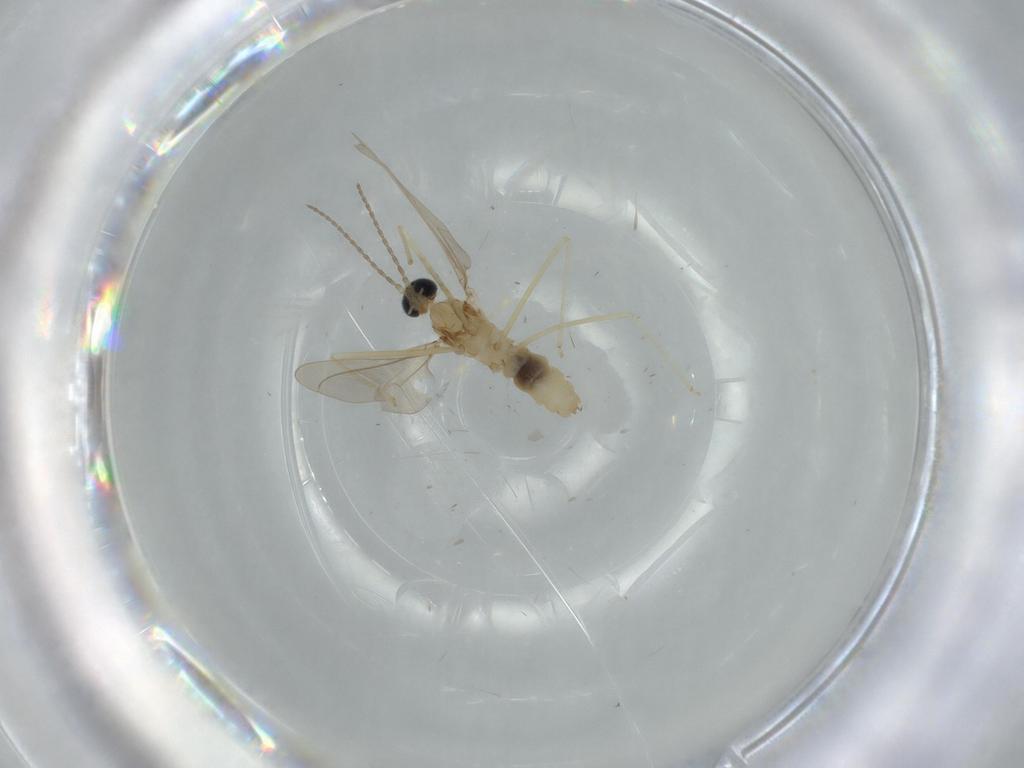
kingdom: Animalia
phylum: Arthropoda
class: Insecta
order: Diptera
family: Cecidomyiidae
